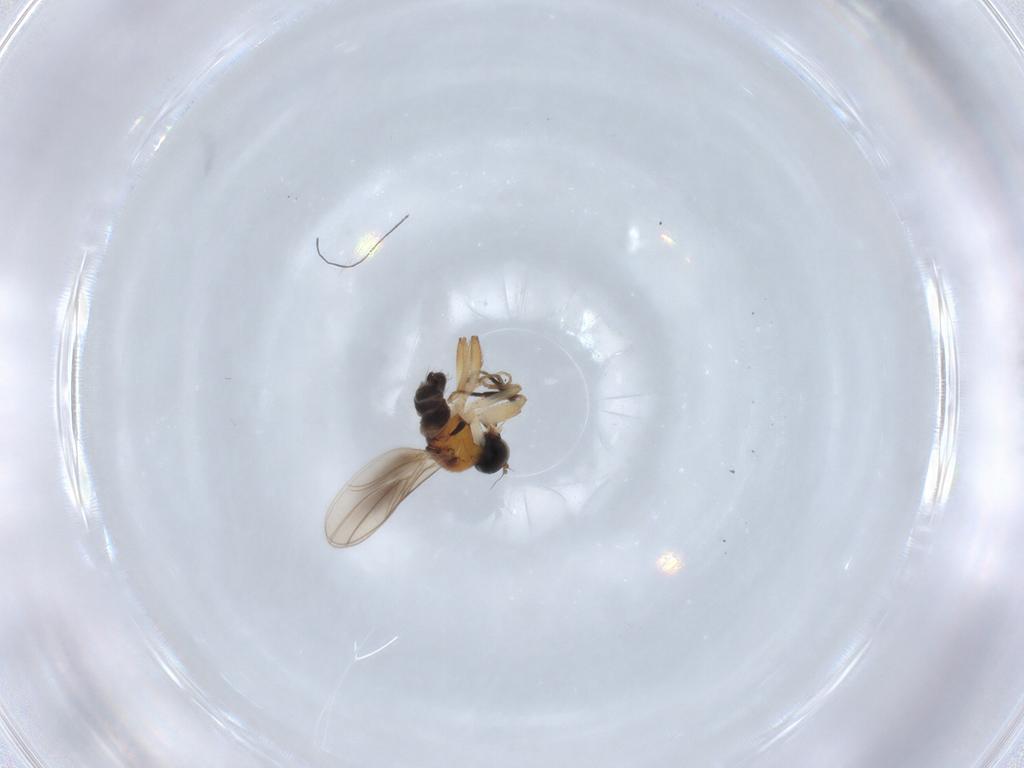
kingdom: Animalia
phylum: Arthropoda
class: Insecta
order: Diptera
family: Hybotidae
